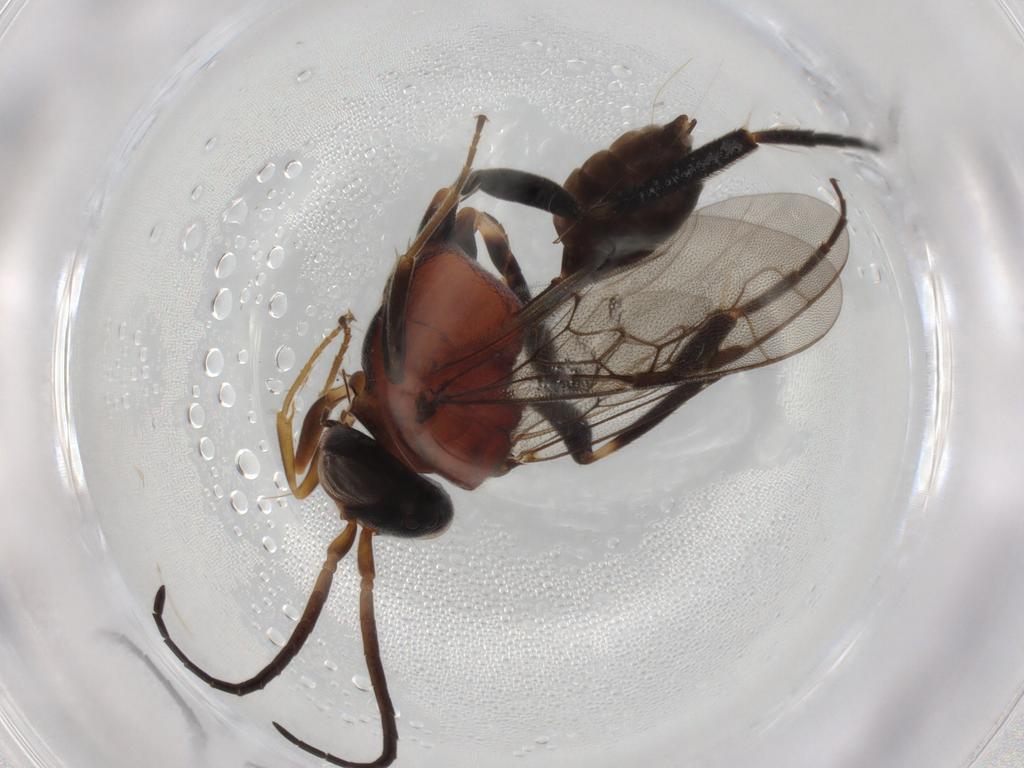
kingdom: Animalia
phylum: Arthropoda
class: Insecta
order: Hymenoptera
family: Evaniidae
